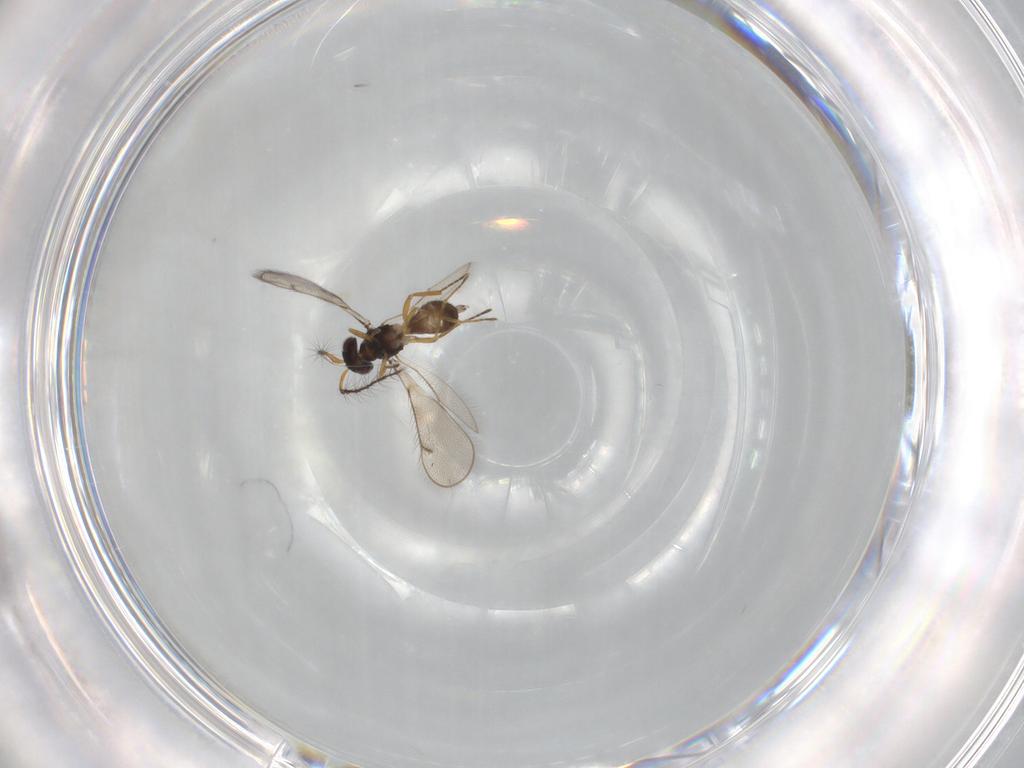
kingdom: Animalia
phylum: Arthropoda
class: Insecta
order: Hymenoptera
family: Eulophidae
